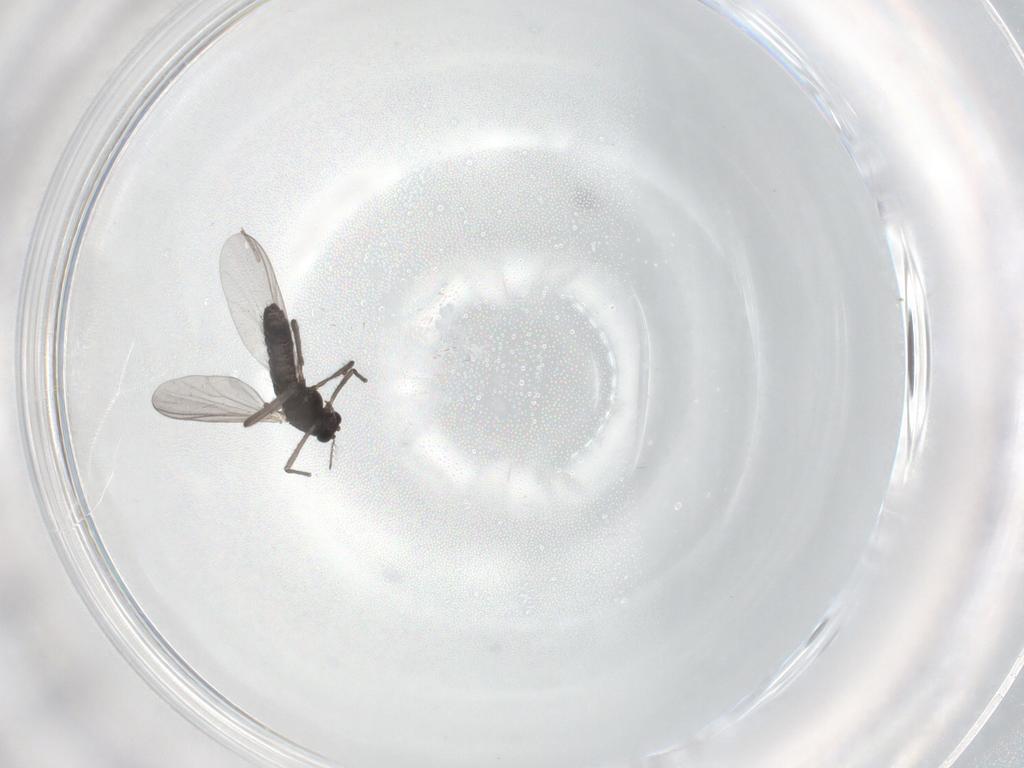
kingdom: Animalia
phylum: Arthropoda
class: Insecta
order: Diptera
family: Chironomidae
